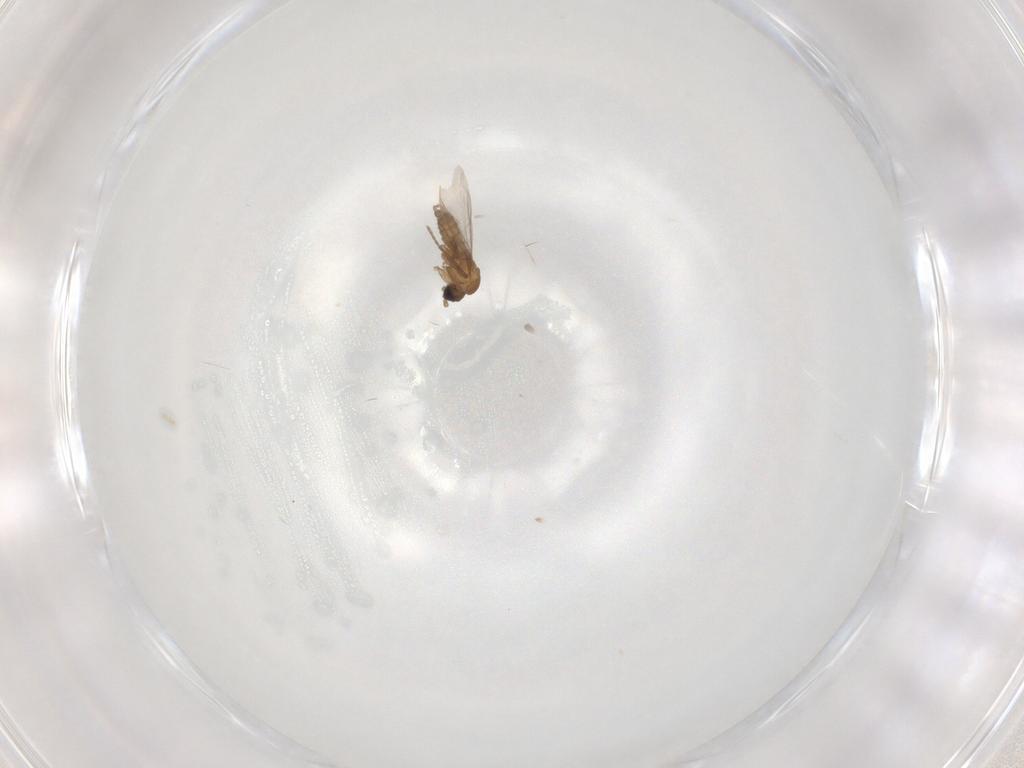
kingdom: Animalia
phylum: Arthropoda
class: Insecta
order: Diptera
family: Sciaridae
